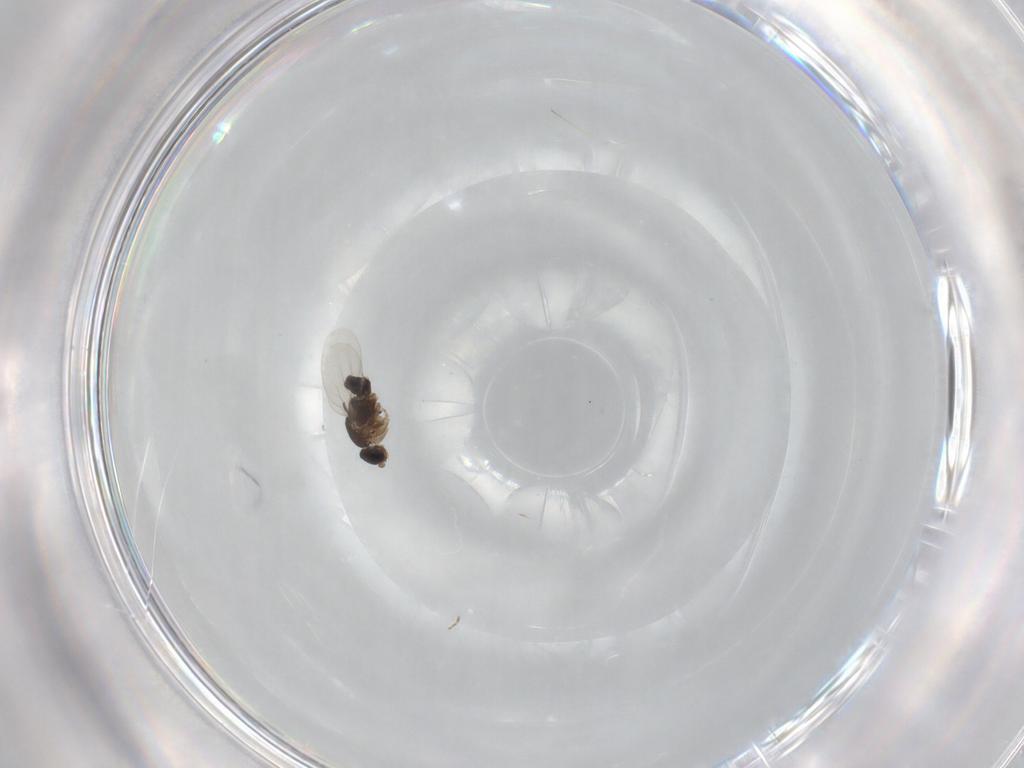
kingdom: Animalia
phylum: Arthropoda
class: Insecta
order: Diptera
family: Phoridae
